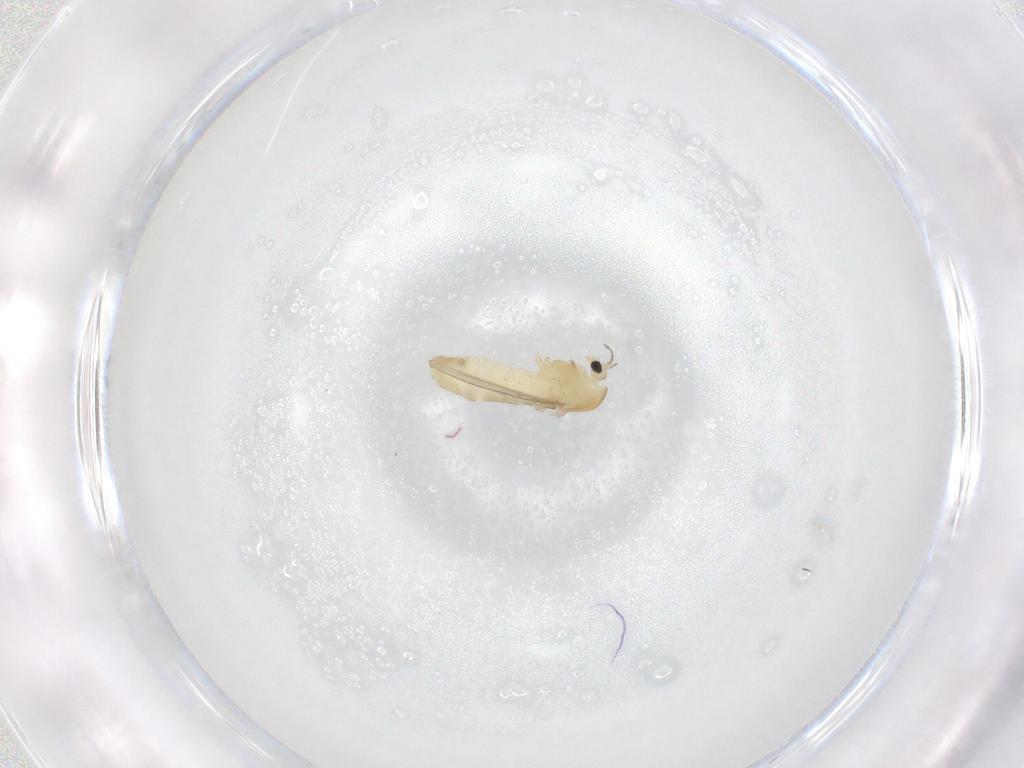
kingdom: Animalia
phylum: Arthropoda
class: Insecta
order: Diptera
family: Chironomidae
